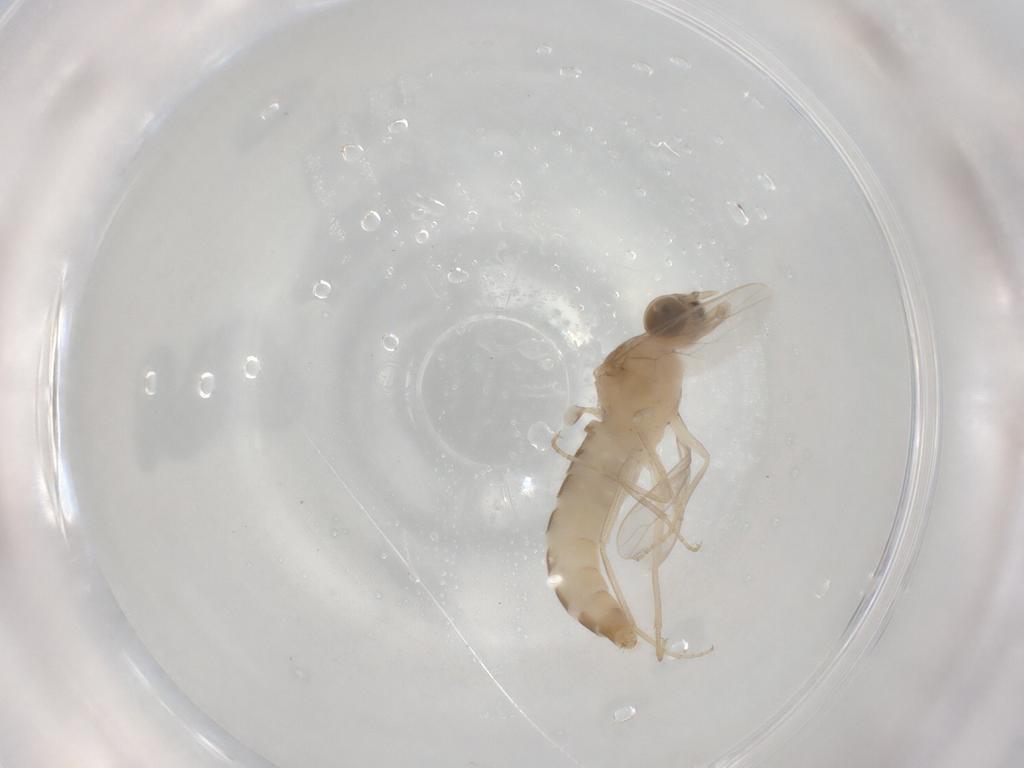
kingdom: Animalia
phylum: Arthropoda
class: Insecta
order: Diptera
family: Scenopinidae
